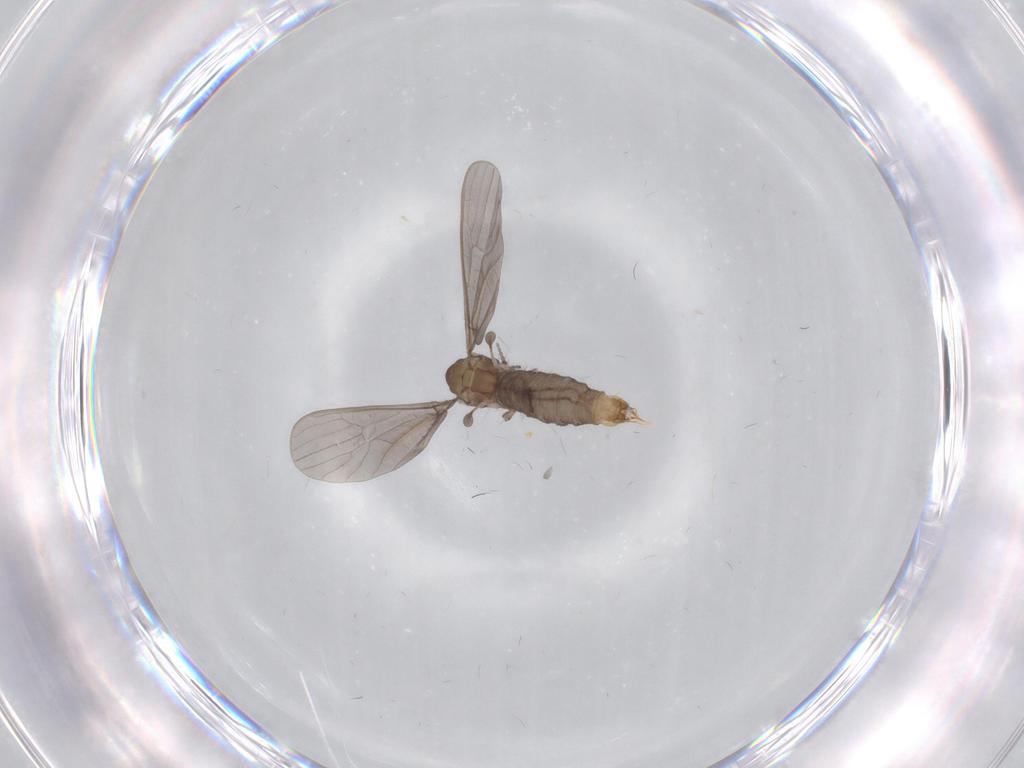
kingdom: Animalia
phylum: Arthropoda
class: Insecta
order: Diptera
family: Limoniidae
